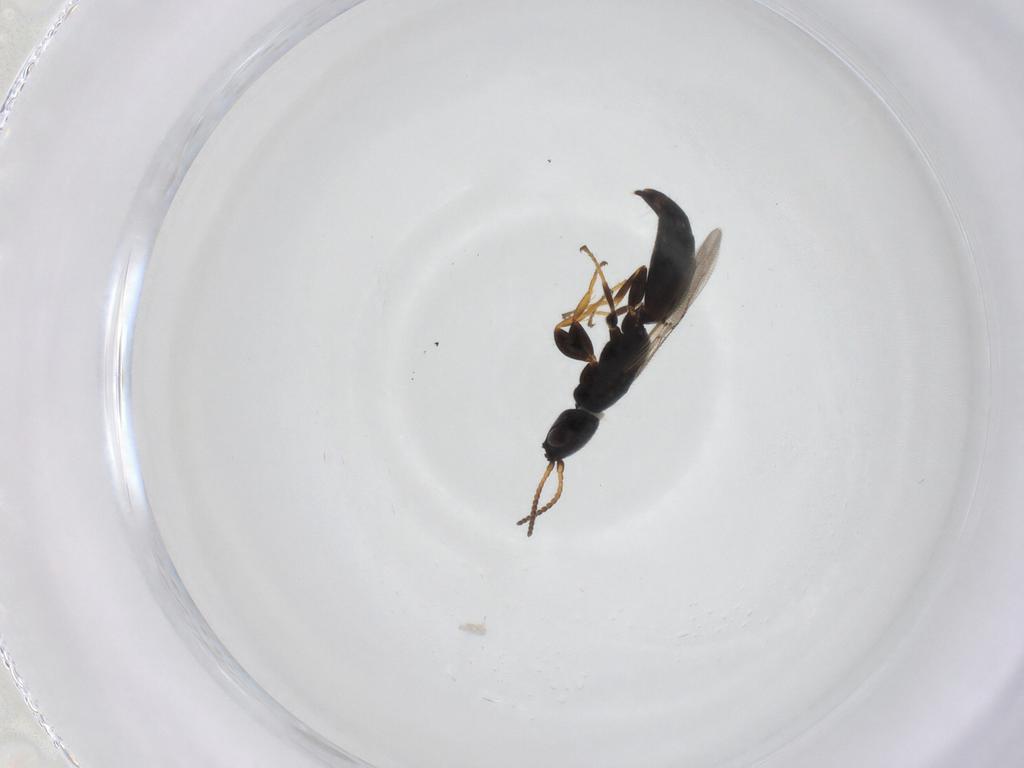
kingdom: Animalia
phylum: Arthropoda
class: Insecta
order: Hymenoptera
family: Bethylidae
